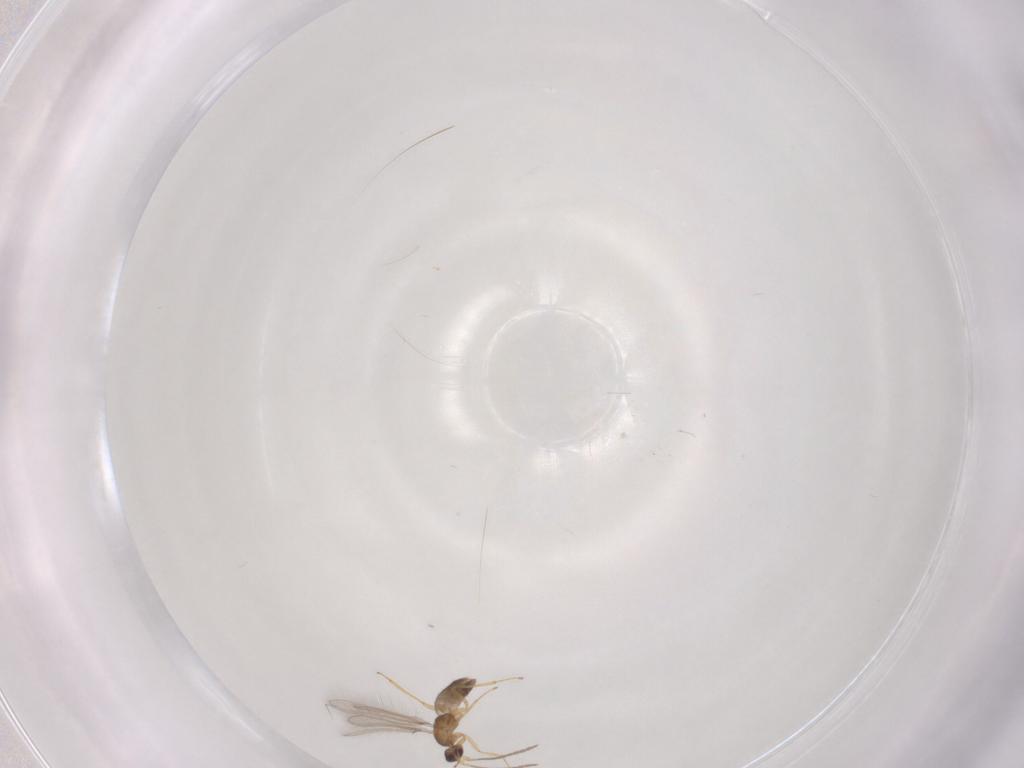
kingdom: Animalia
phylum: Arthropoda
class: Insecta
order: Hymenoptera
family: Mymaridae
